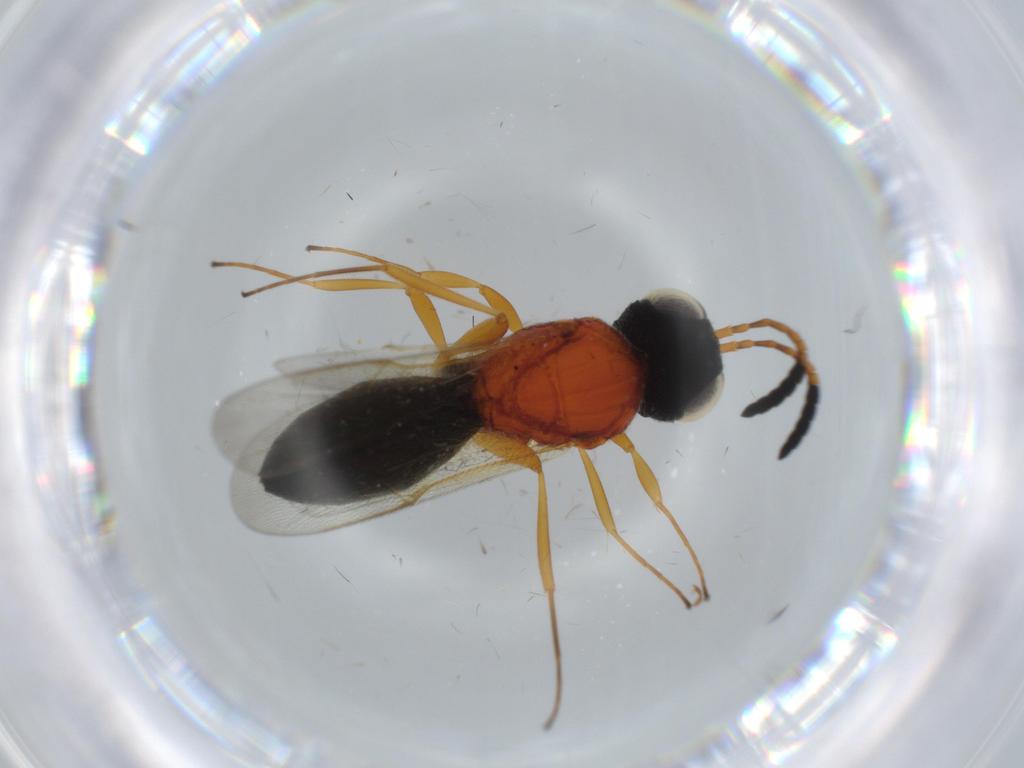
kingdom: Animalia
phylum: Arthropoda
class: Insecta
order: Hymenoptera
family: Scelionidae
